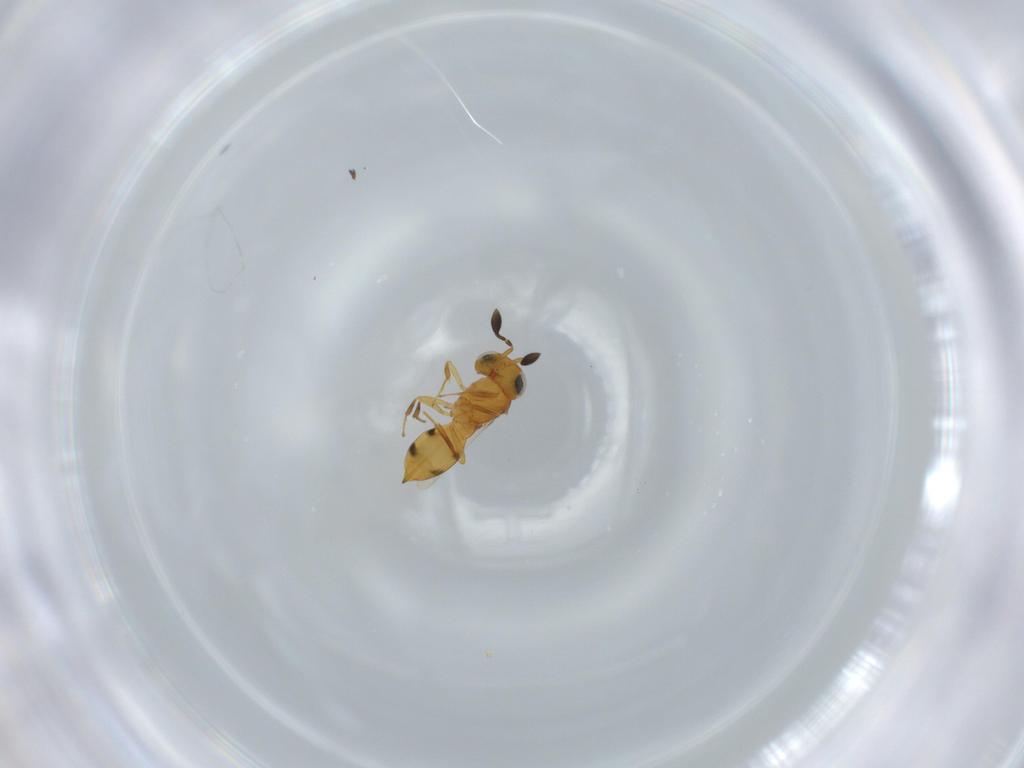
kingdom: Animalia
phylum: Arthropoda
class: Insecta
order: Hymenoptera
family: Scelionidae
